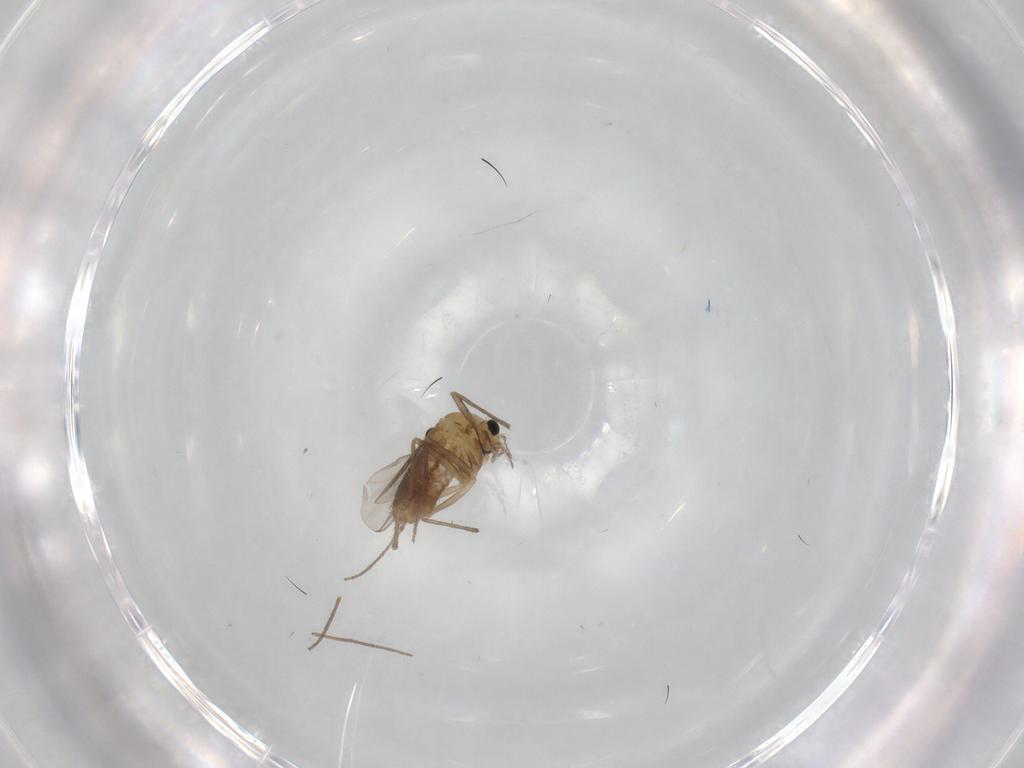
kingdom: Animalia
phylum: Arthropoda
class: Insecta
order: Diptera
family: Chironomidae
